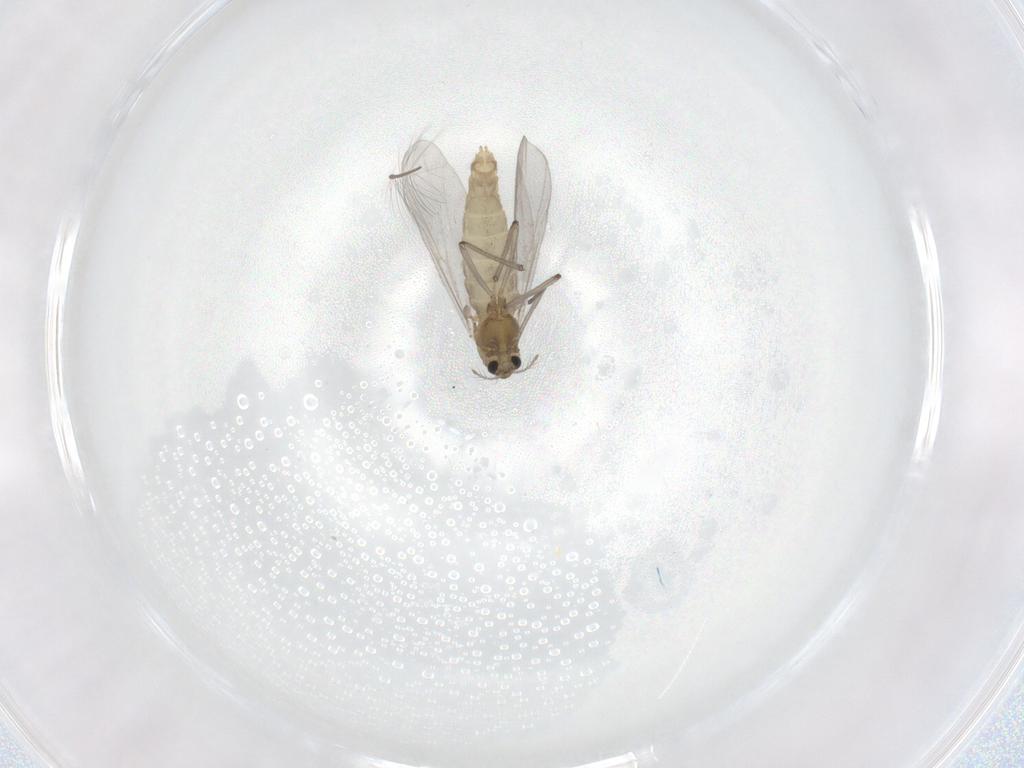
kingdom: Animalia
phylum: Arthropoda
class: Insecta
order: Diptera
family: Chironomidae
